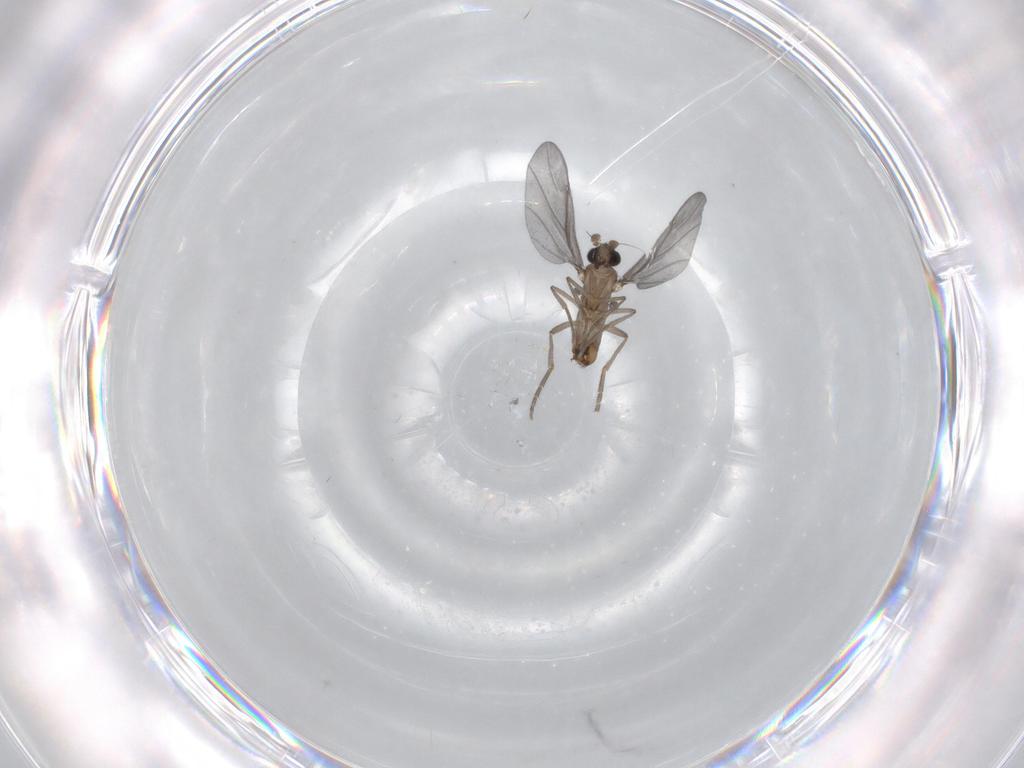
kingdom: Animalia
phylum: Arthropoda
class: Insecta
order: Diptera
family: Phoridae
